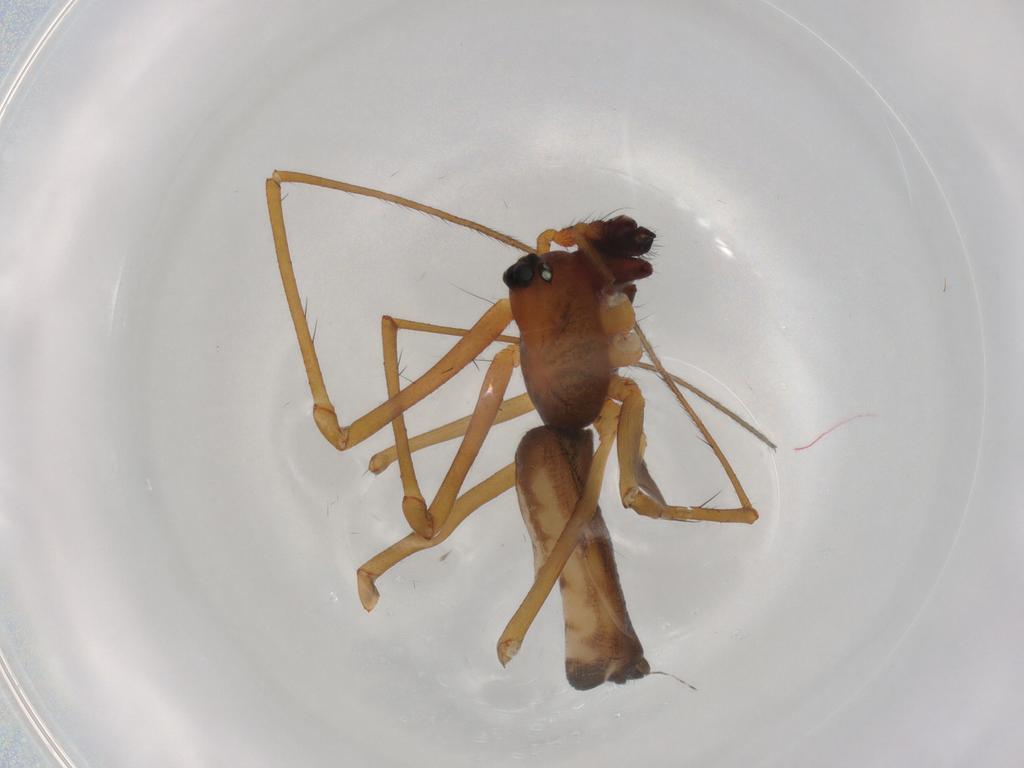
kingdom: Animalia
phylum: Arthropoda
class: Arachnida
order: Araneae
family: Theridiidae
